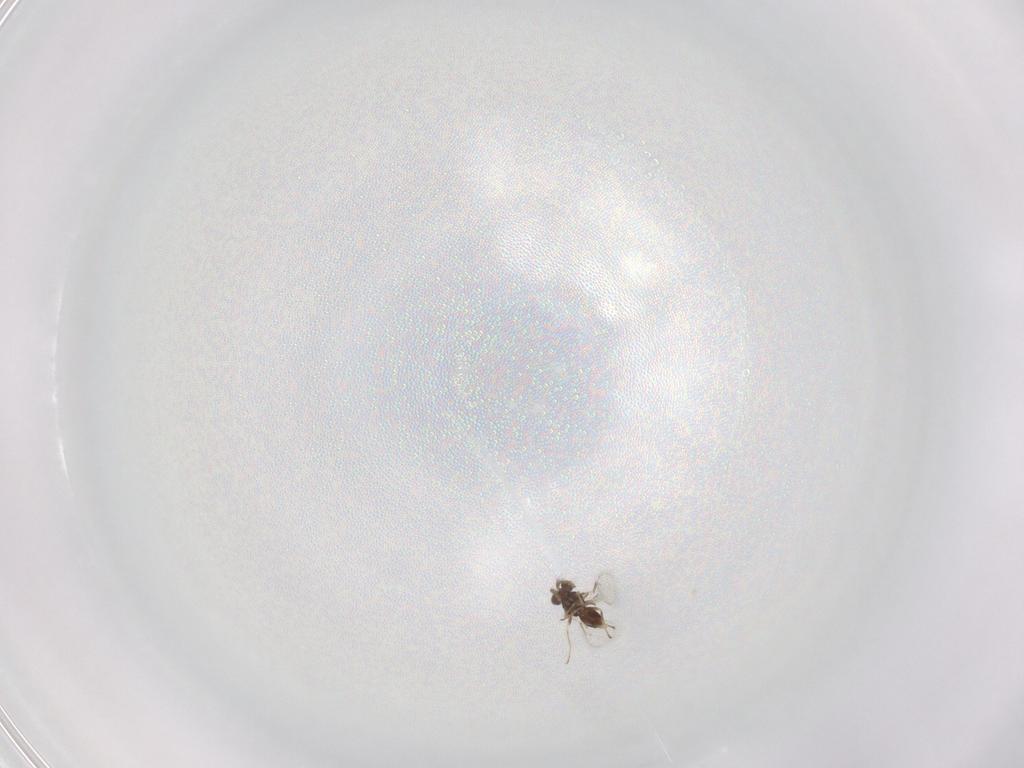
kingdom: Animalia
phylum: Arthropoda
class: Insecta
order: Hymenoptera
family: Eulophidae
